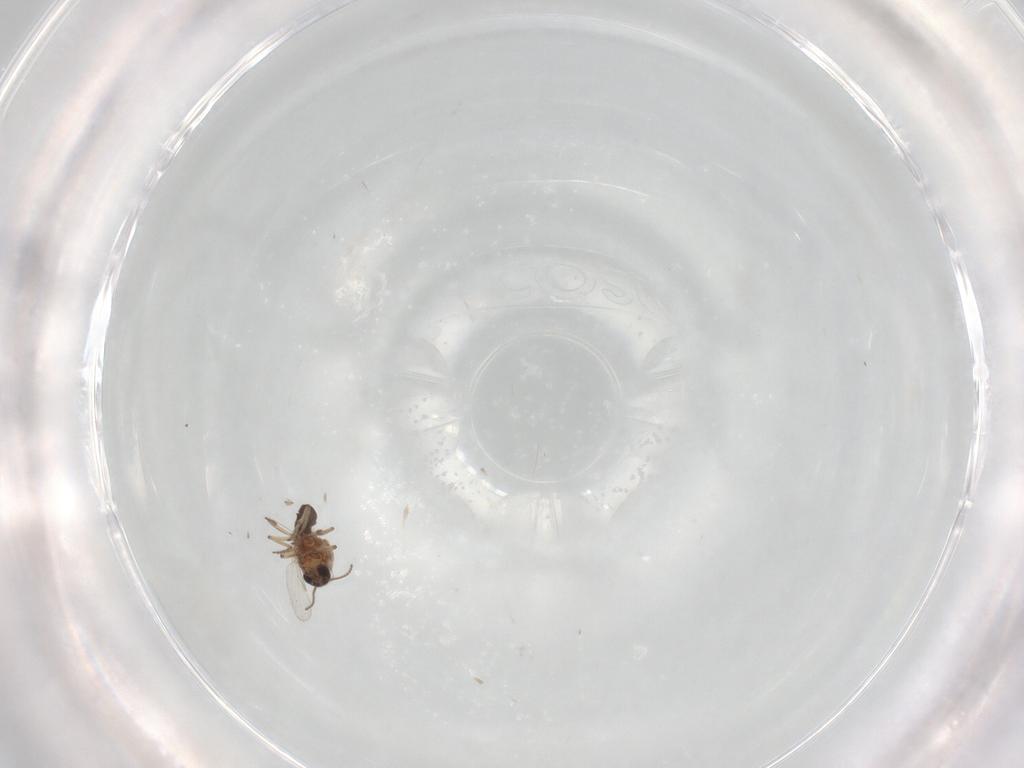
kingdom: Animalia
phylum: Arthropoda
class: Insecta
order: Diptera
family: Ceratopogonidae
